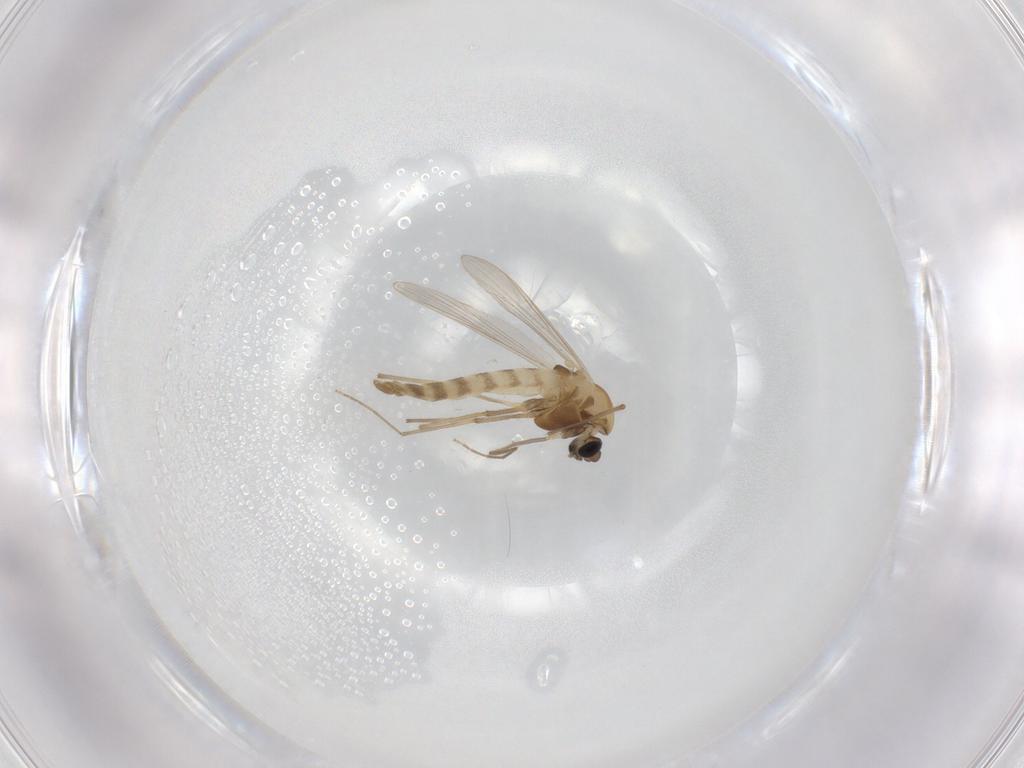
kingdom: Animalia
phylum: Arthropoda
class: Insecta
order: Diptera
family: Chironomidae
